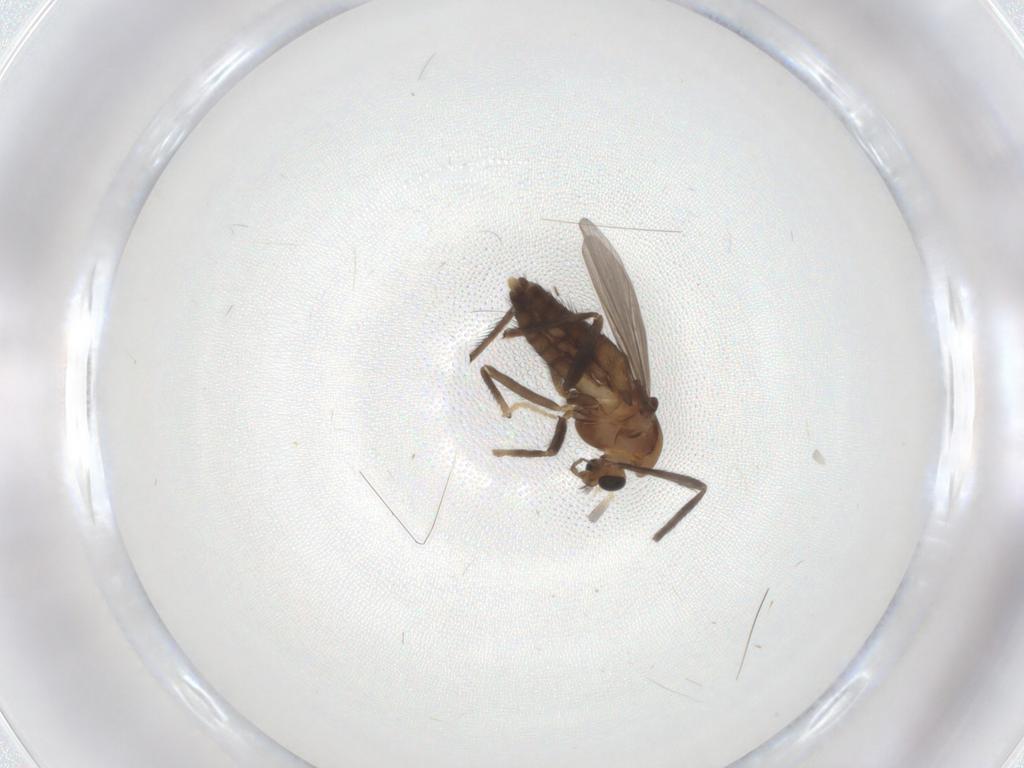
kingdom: Animalia
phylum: Arthropoda
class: Insecta
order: Diptera
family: Chironomidae
